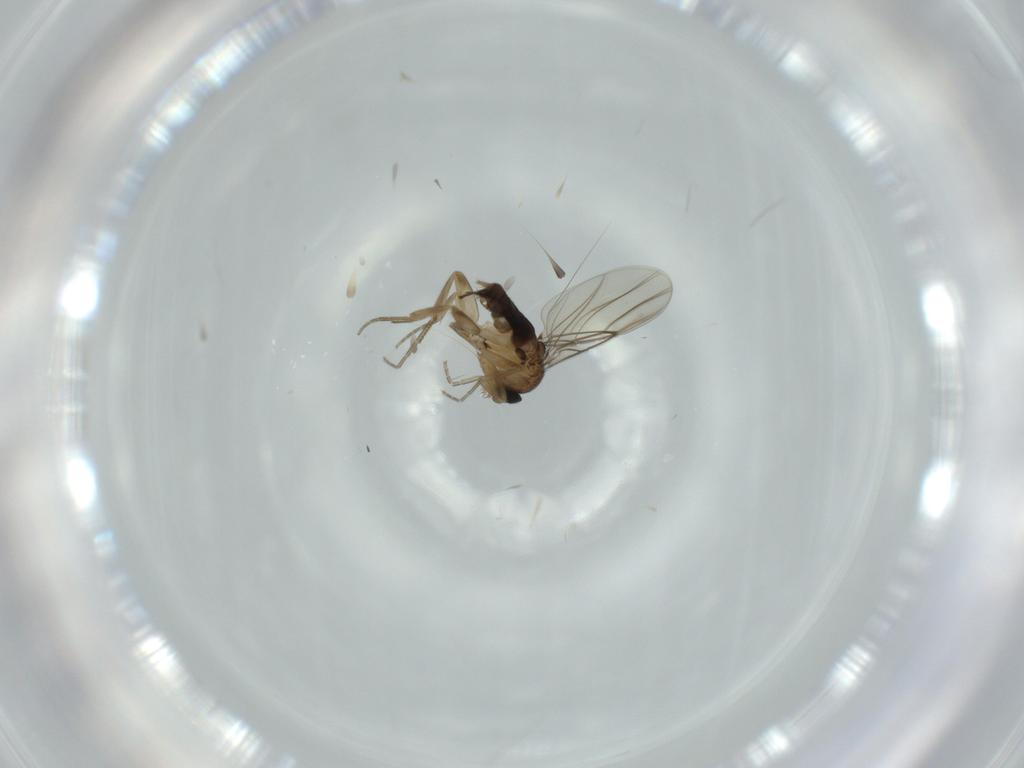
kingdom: Animalia
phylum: Arthropoda
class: Insecta
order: Diptera
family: Phoridae
